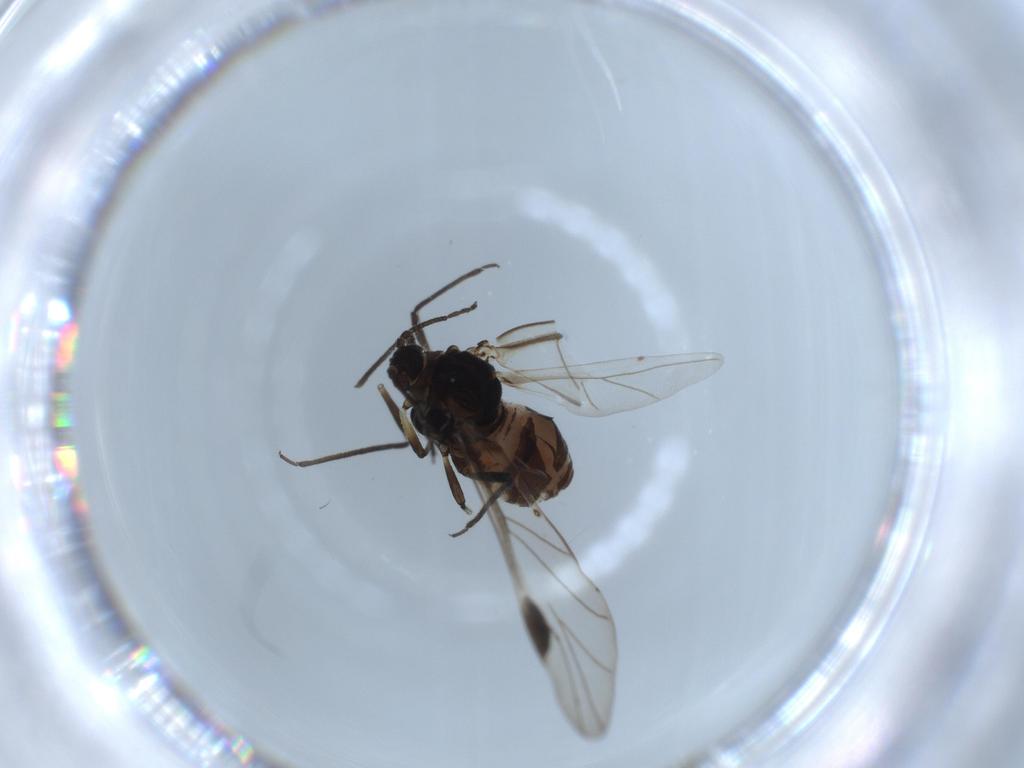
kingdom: Animalia
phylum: Arthropoda
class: Insecta
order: Hemiptera
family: Aphididae
